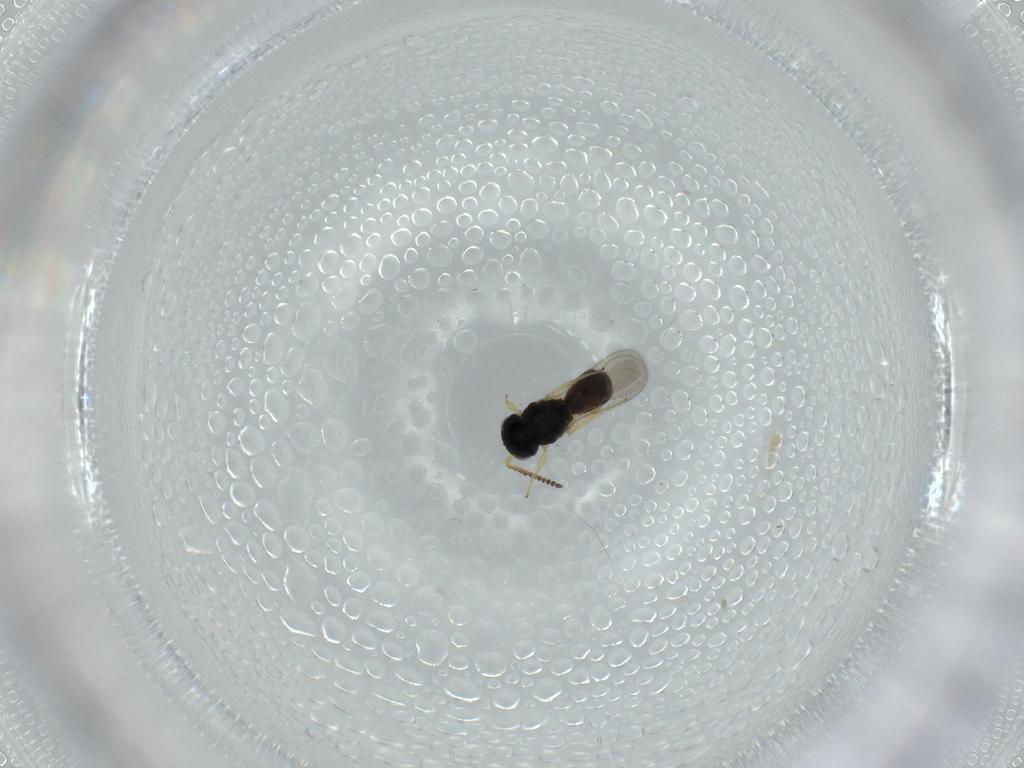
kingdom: Animalia
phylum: Arthropoda
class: Insecta
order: Hymenoptera
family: Scelionidae
